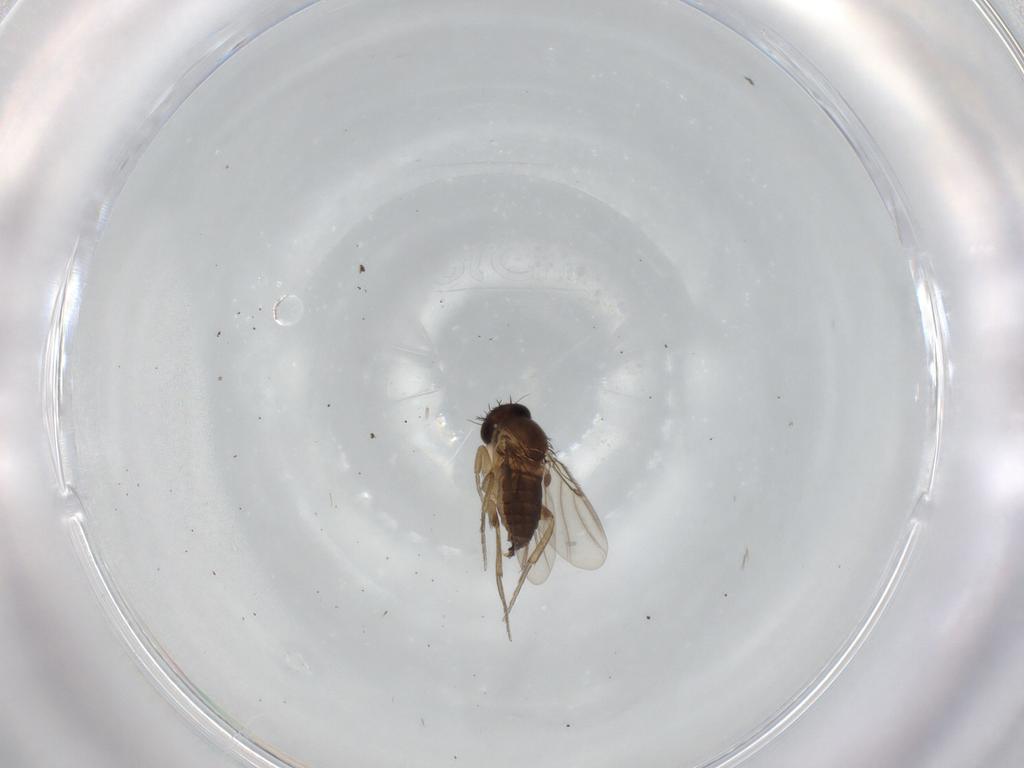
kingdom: Animalia
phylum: Arthropoda
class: Insecta
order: Diptera
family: Phoridae
